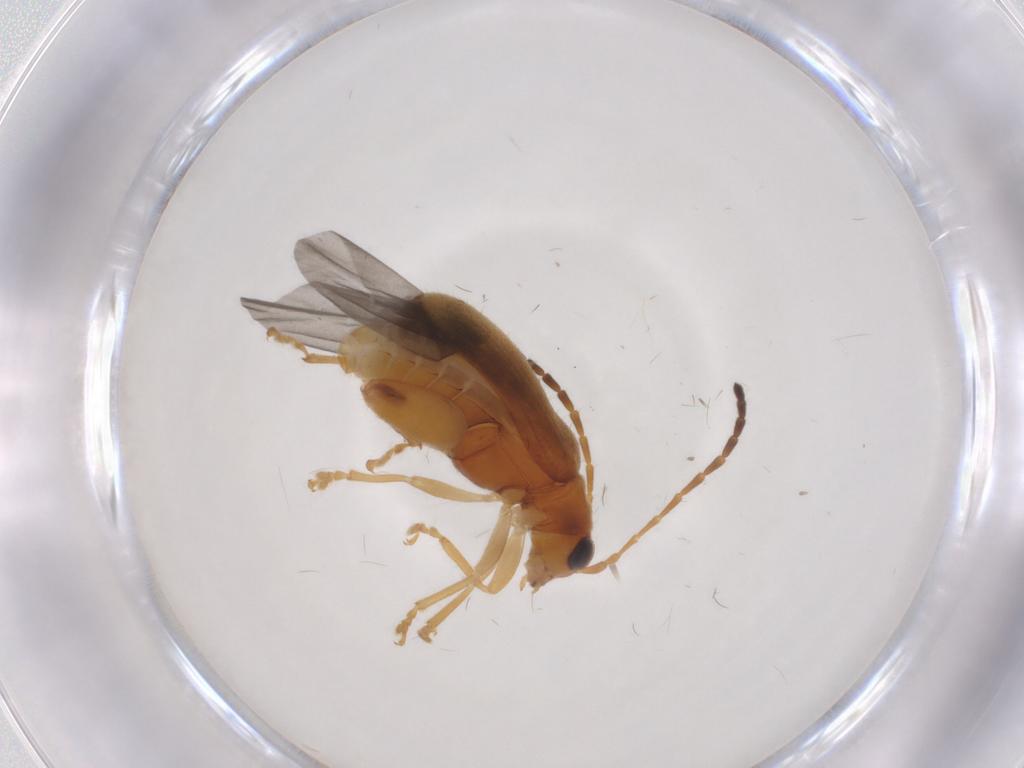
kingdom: Animalia
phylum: Arthropoda
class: Insecta
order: Coleoptera
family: Chrysomelidae
